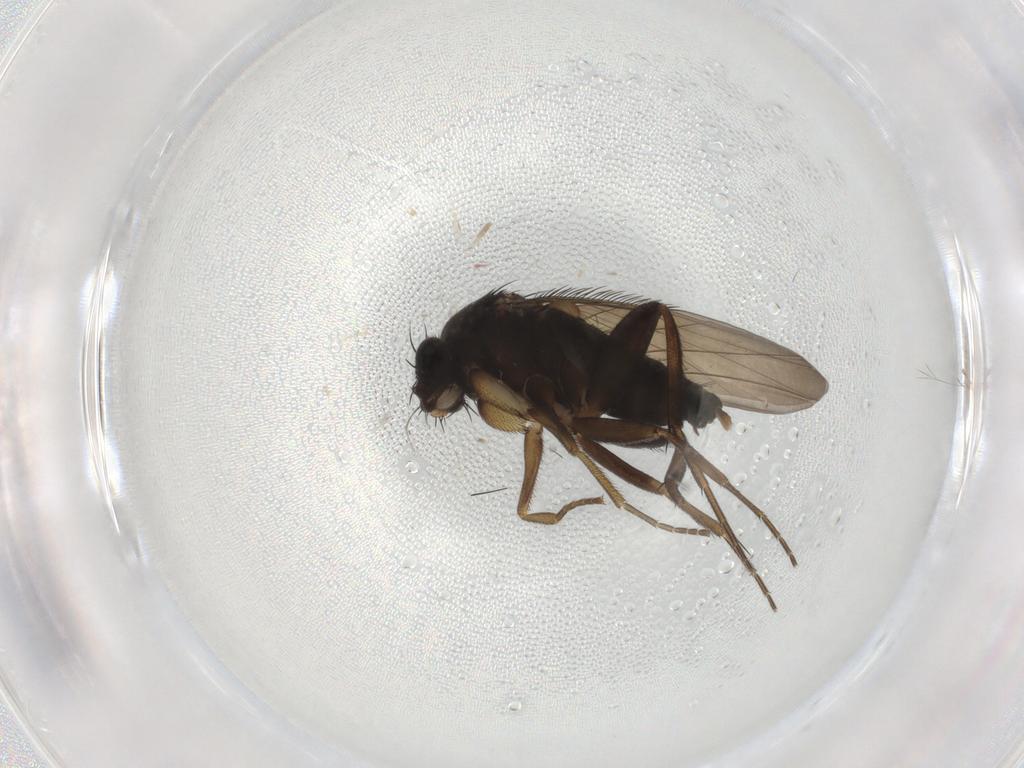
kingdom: Animalia
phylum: Arthropoda
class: Insecta
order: Diptera
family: Phoridae
